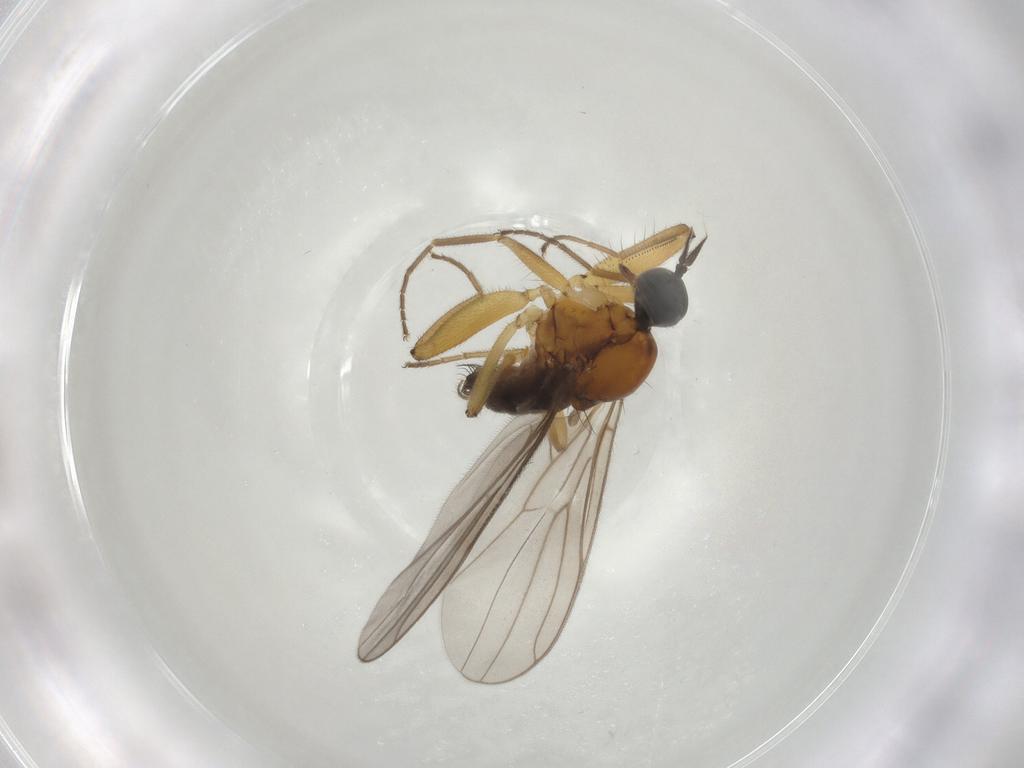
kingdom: Animalia
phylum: Arthropoda
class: Insecta
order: Diptera
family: Hybotidae
